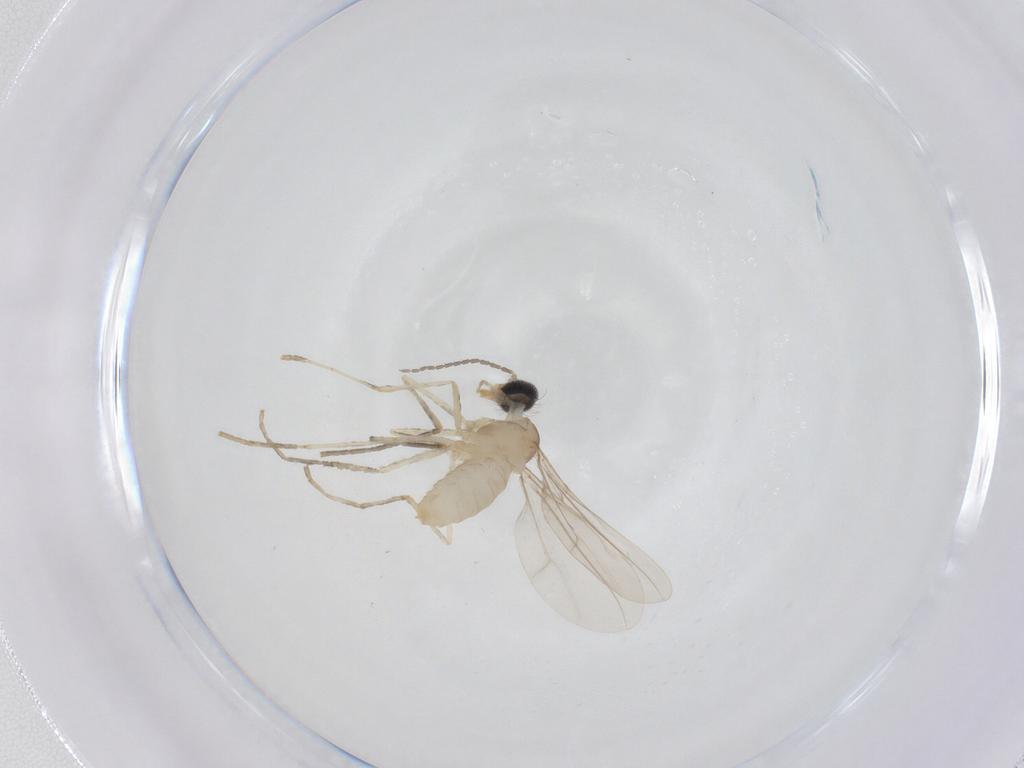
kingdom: Animalia
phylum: Arthropoda
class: Insecta
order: Diptera
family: Cecidomyiidae
